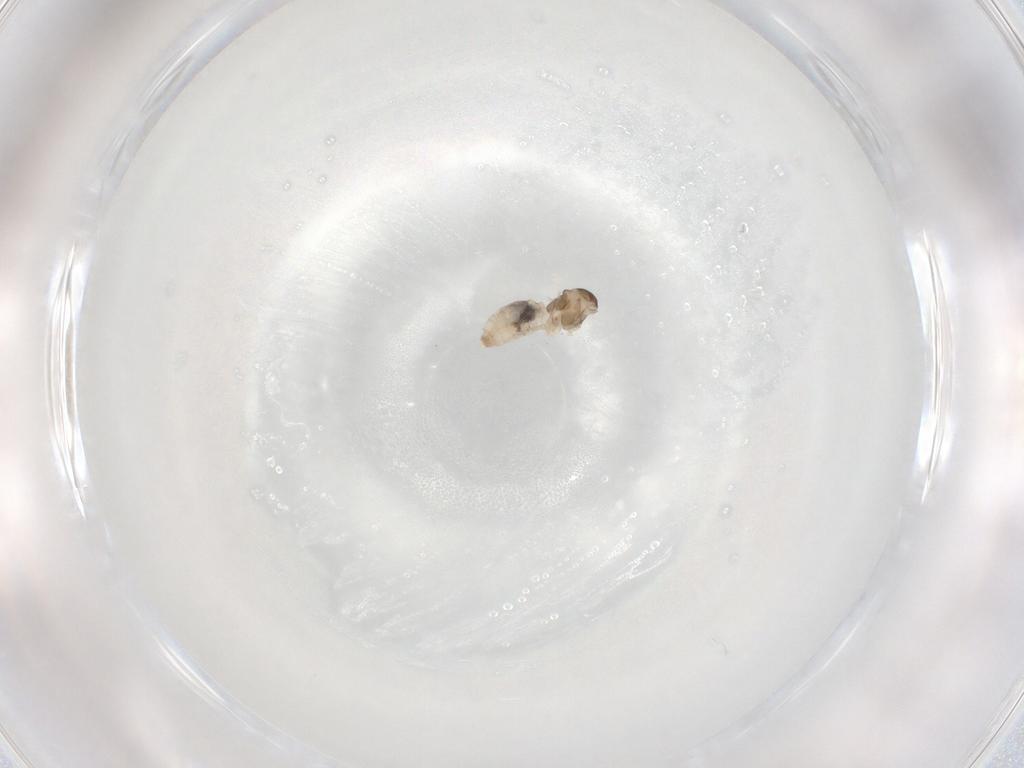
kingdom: Animalia
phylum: Arthropoda
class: Insecta
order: Diptera
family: Cecidomyiidae
